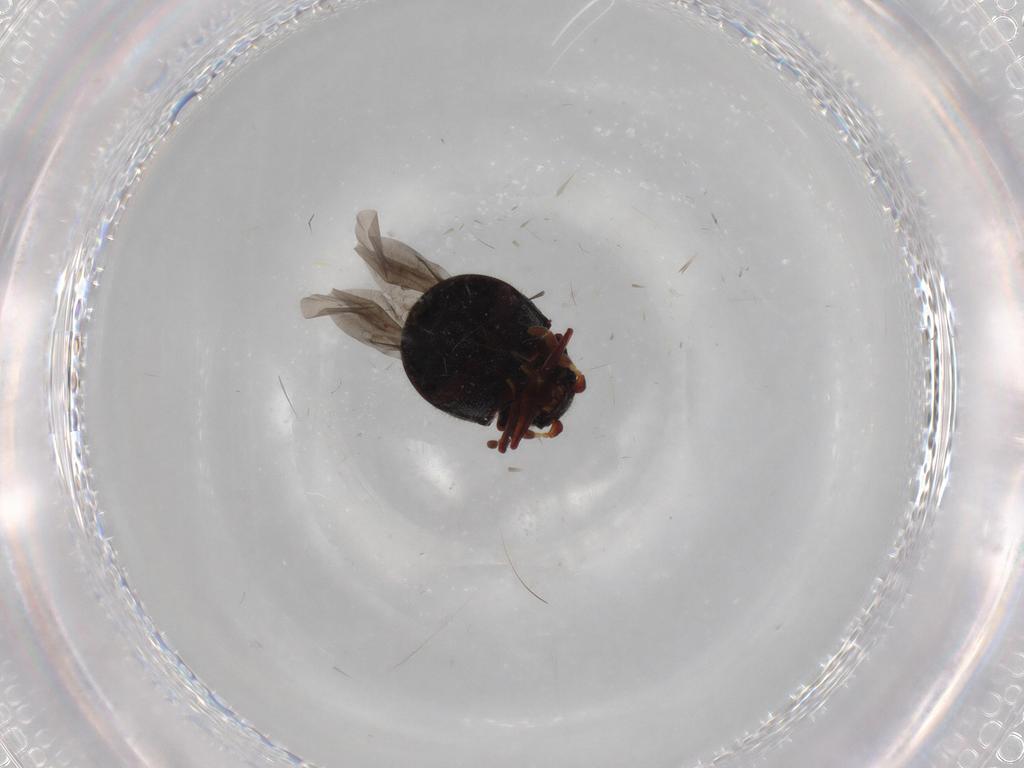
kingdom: Animalia
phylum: Arthropoda
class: Insecta
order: Coleoptera
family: Ptinidae
